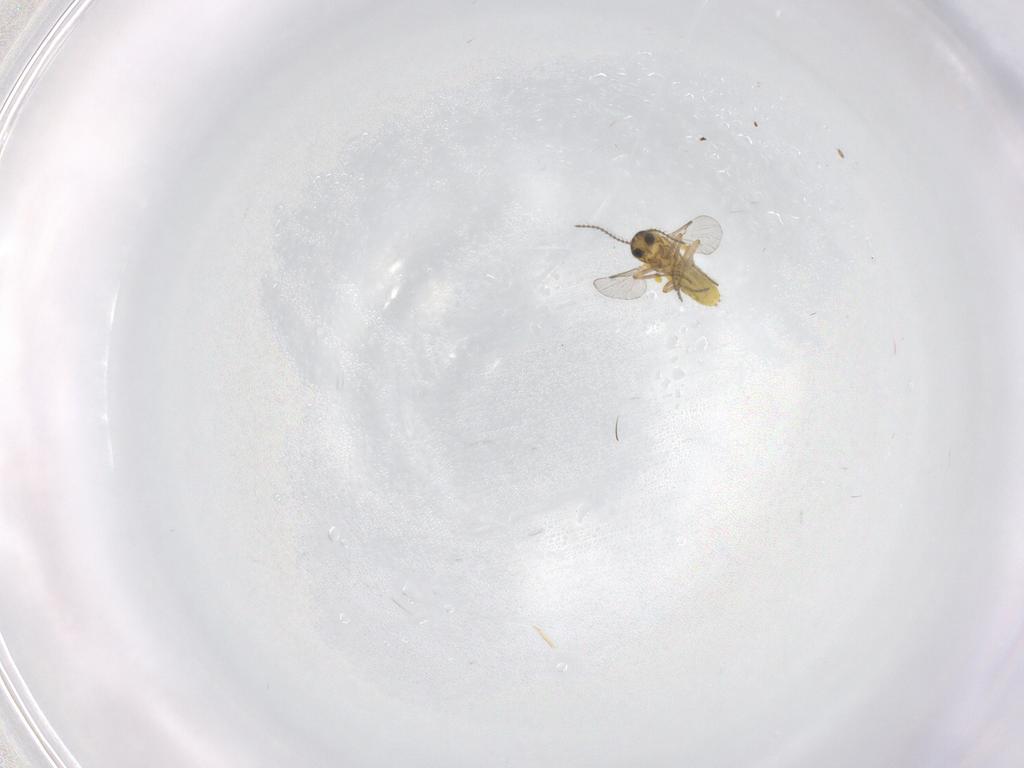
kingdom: Animalia
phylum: Arthropoda
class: Insecta
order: Diptera
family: Ceratopogonidae
